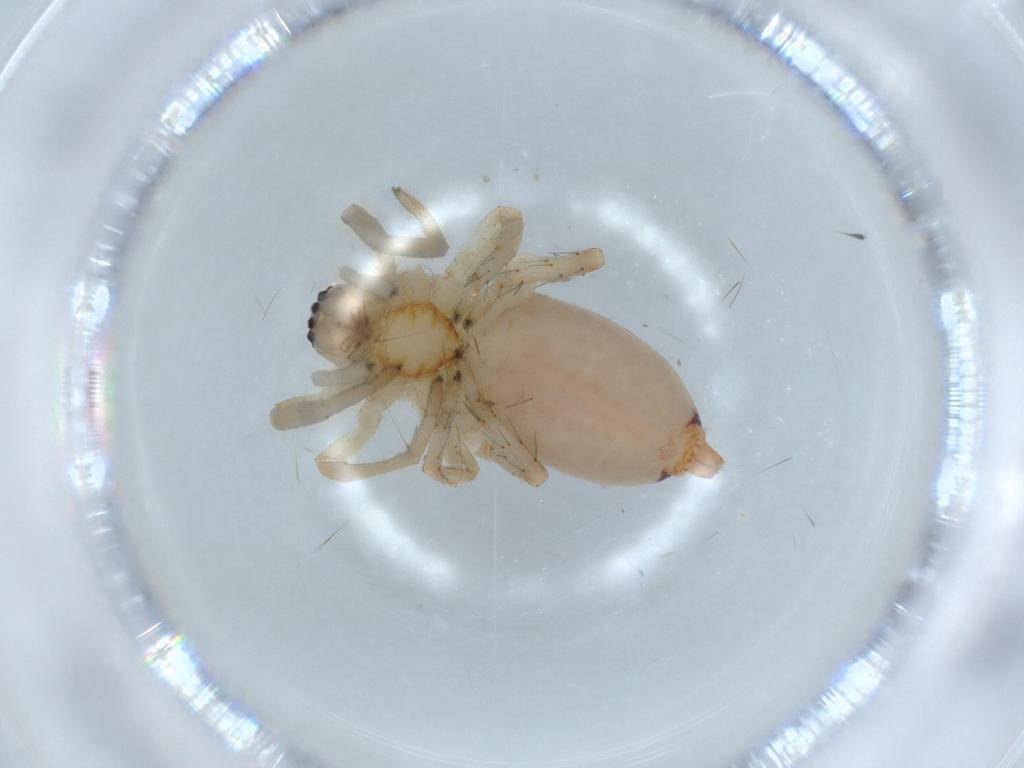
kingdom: Animalia
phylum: Arthropoda
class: Arachnida
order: Araneae
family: Clubionidae
